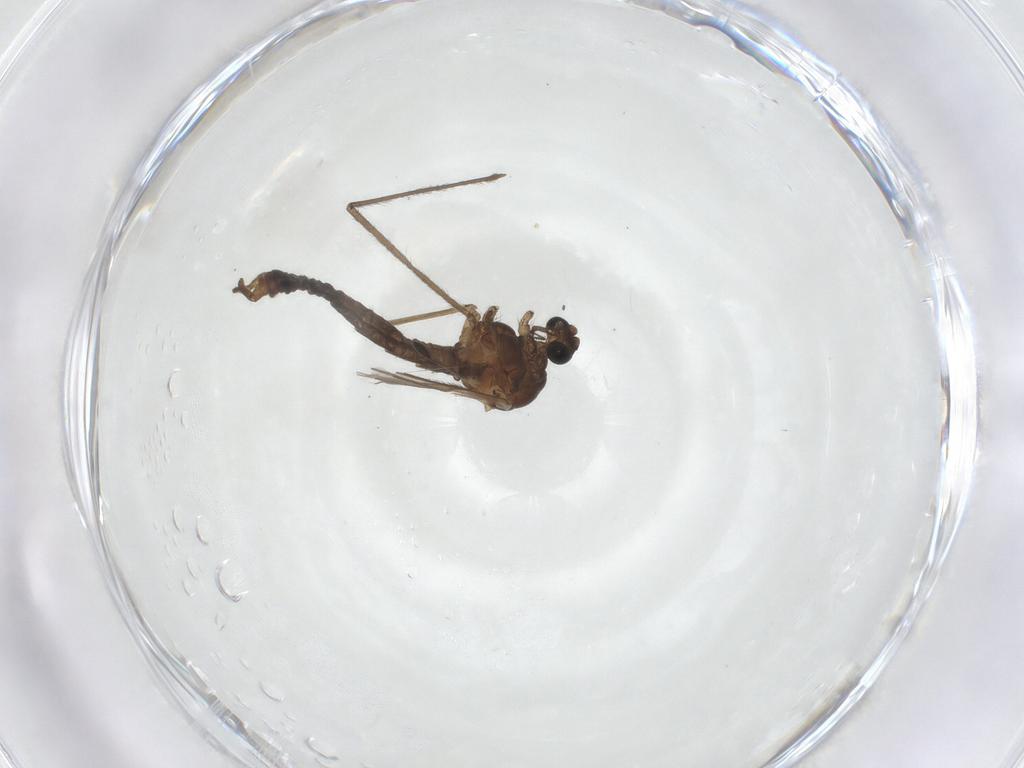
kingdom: Animalia
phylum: Arthropoda
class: Insecta
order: Diptera
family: Trichoceridae
